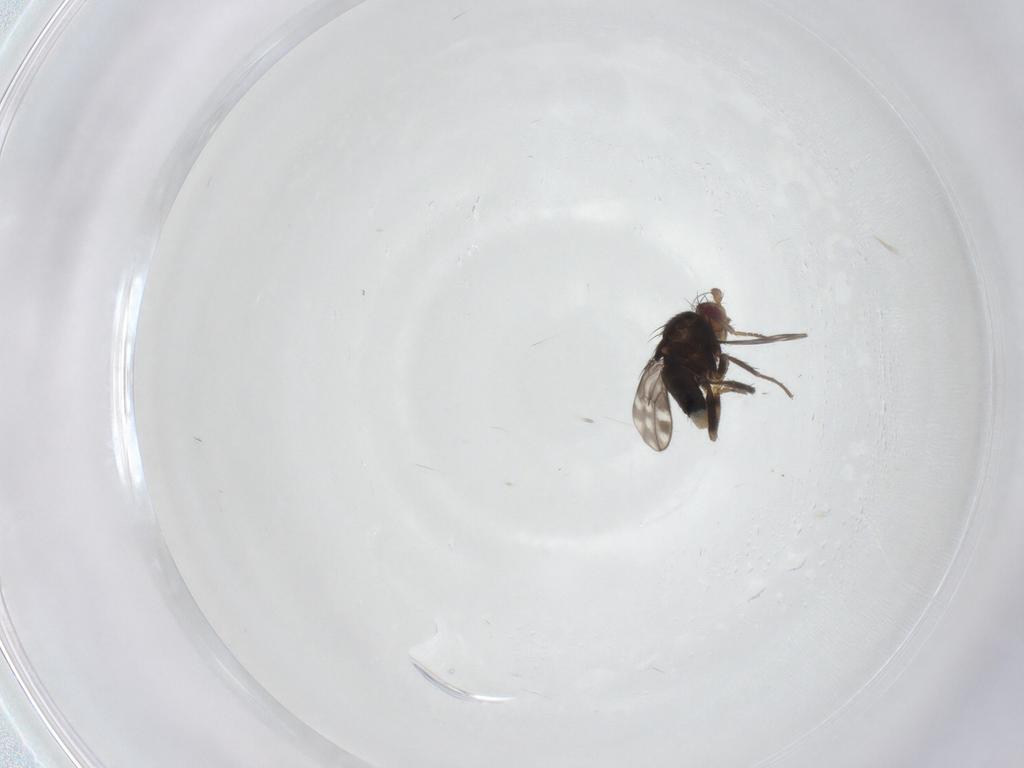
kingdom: Animalia
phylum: Arthropoda
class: Insecta
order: Diptera
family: Sphaeroceridae
